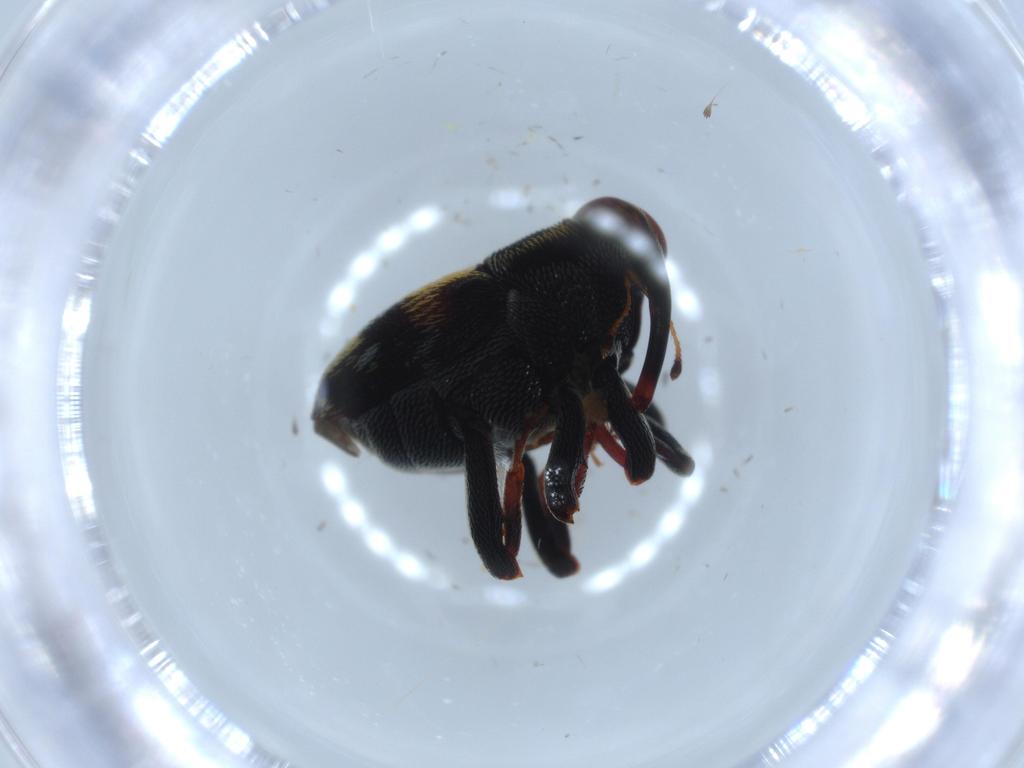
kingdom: Animalia
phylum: Arthropoda
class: Insecta
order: Coleoptera
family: Curculionidae
